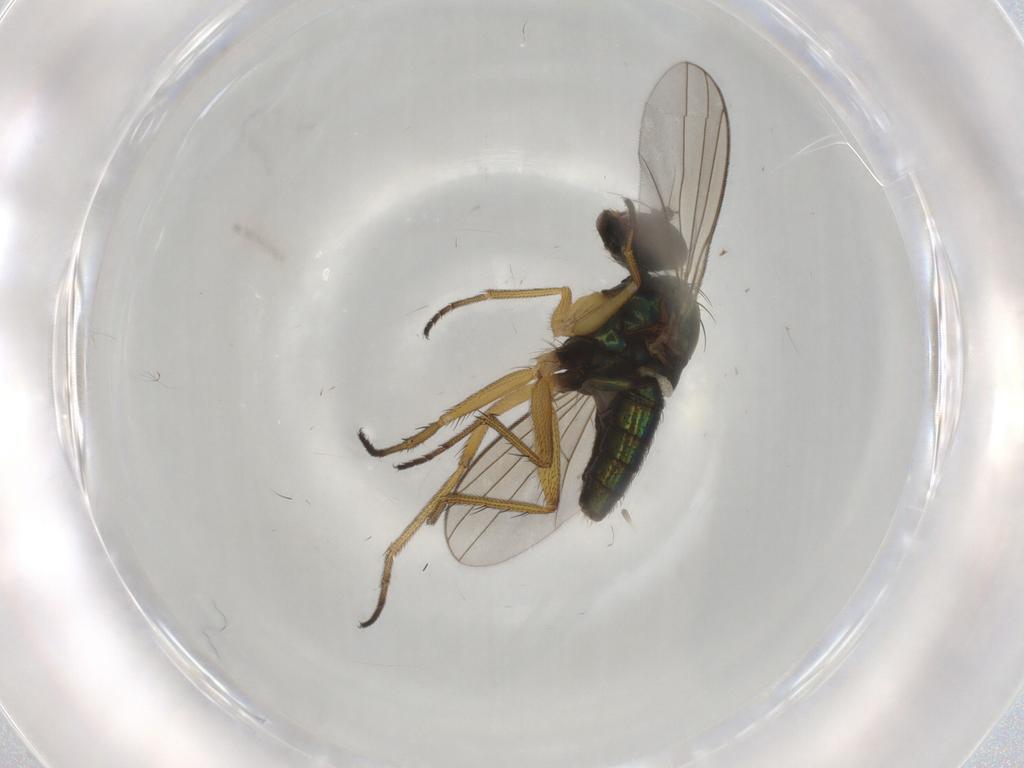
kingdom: Animalia
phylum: Arthropoda
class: Insecta
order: Diptera
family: Dolichopodidae
